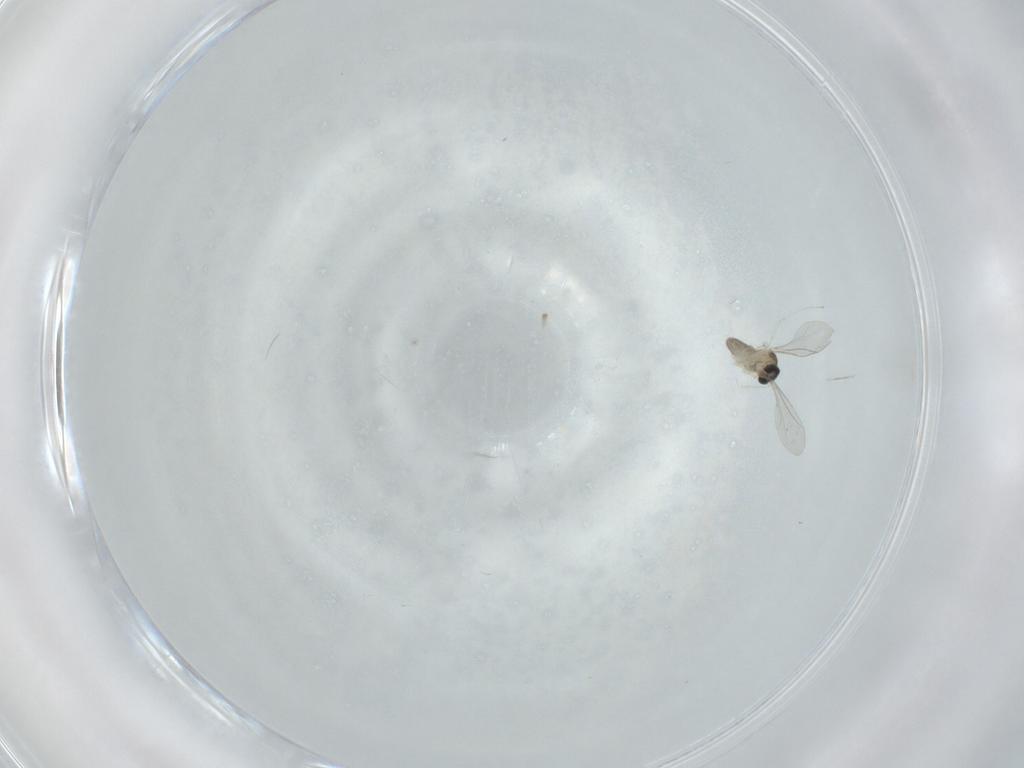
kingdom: Animalia
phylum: Arthropoda
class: Insecta
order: Diptera
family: Cecidomyiidae
